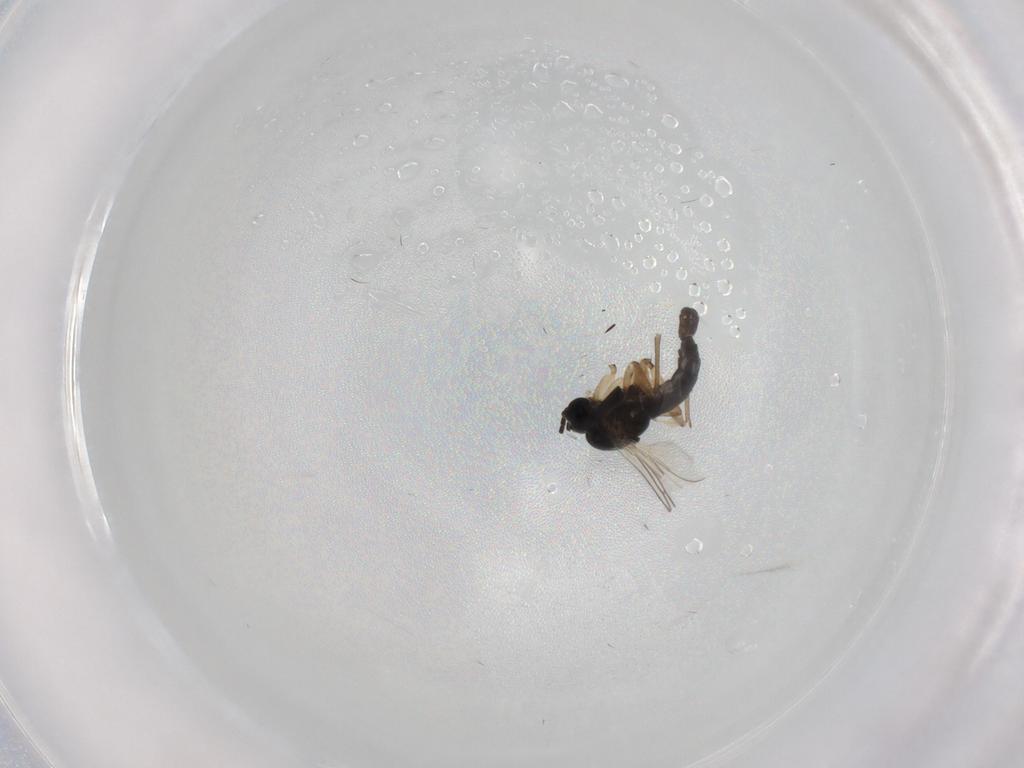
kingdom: Animalia
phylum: Arthropoda
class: Insecta
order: Diptera
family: Sciaridae
